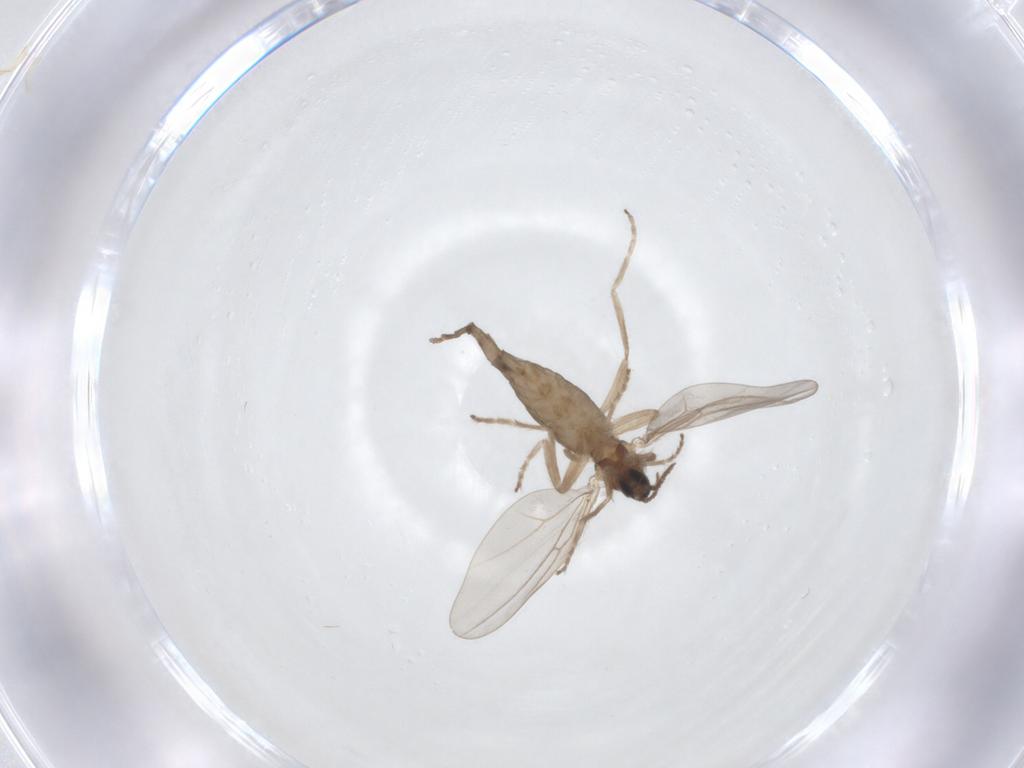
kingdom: Animalia
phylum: Arthropoda
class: Insecta
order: Diptera
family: Cecidomyiidae
